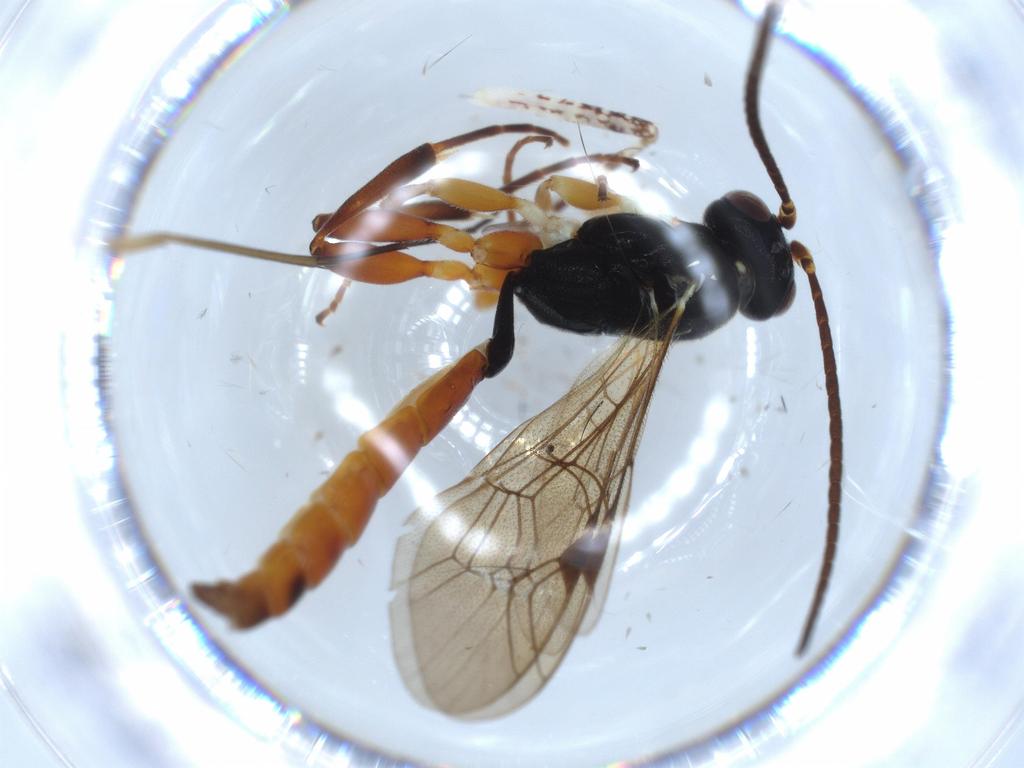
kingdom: Animalia
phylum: Arthropoda
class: Insecta
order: Hymenoptera
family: Ichneumonidae
